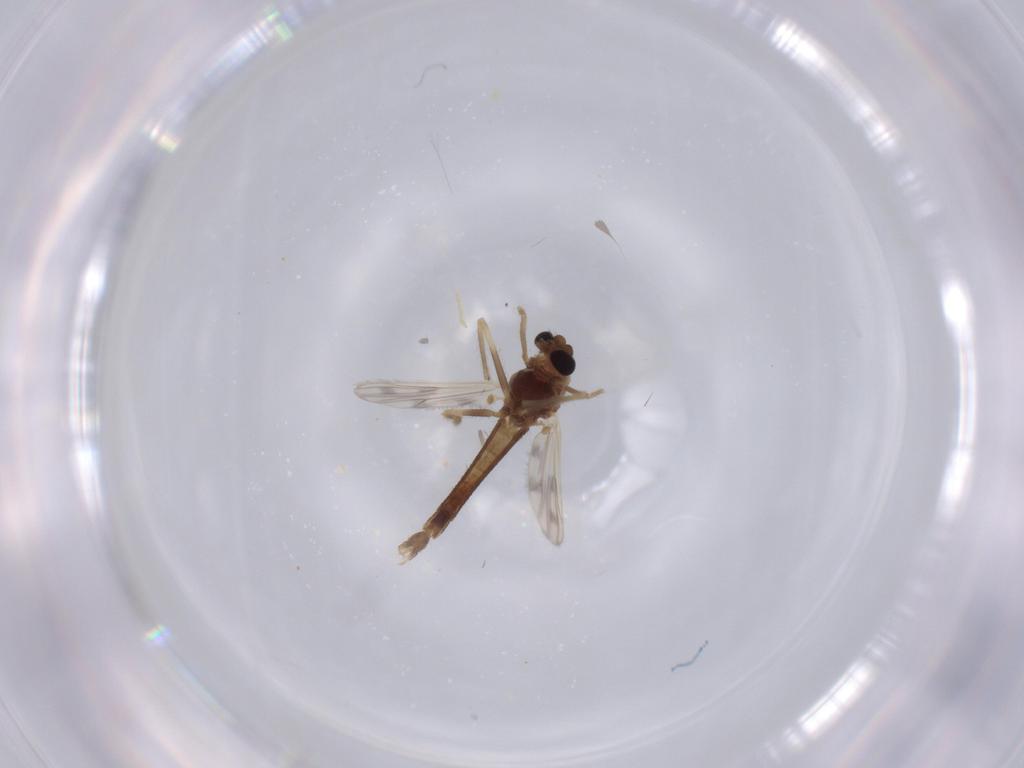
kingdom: Animalia
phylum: Arthropoda
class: Insecta
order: Diptera
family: Chironomidae
